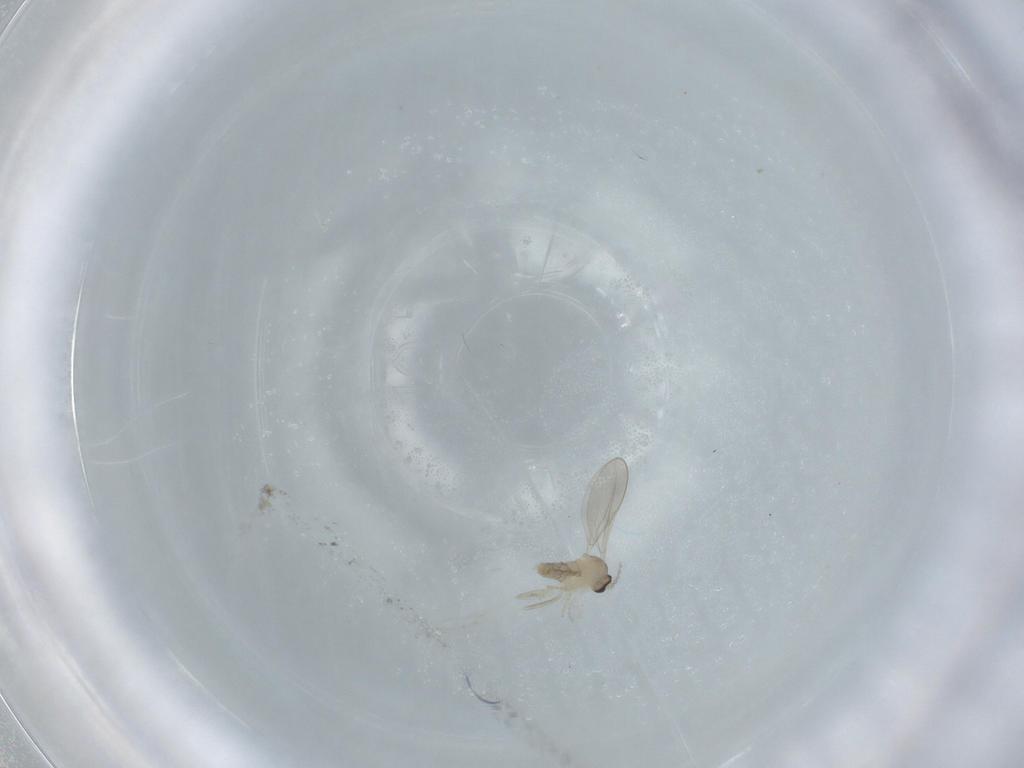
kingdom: Animalia
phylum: Arthropoda
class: Insecta
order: Diptera
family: Cecidomyiidae
